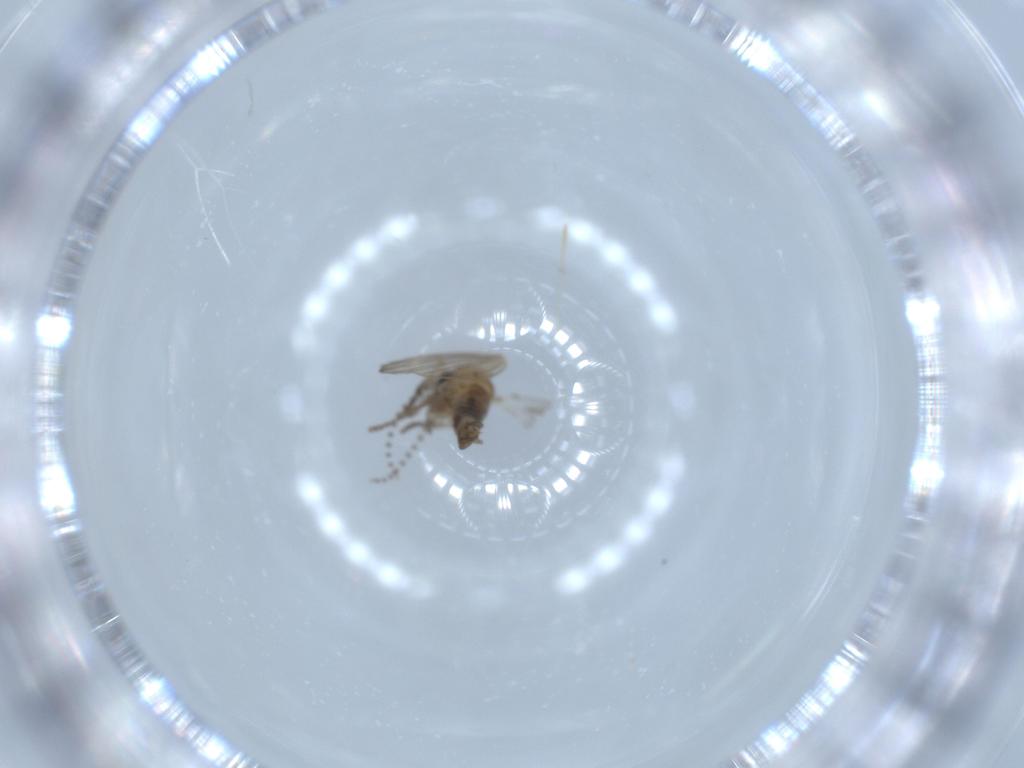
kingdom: Animalia
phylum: Arthropoda
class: Insecta
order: Diptera
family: Psychodidae
